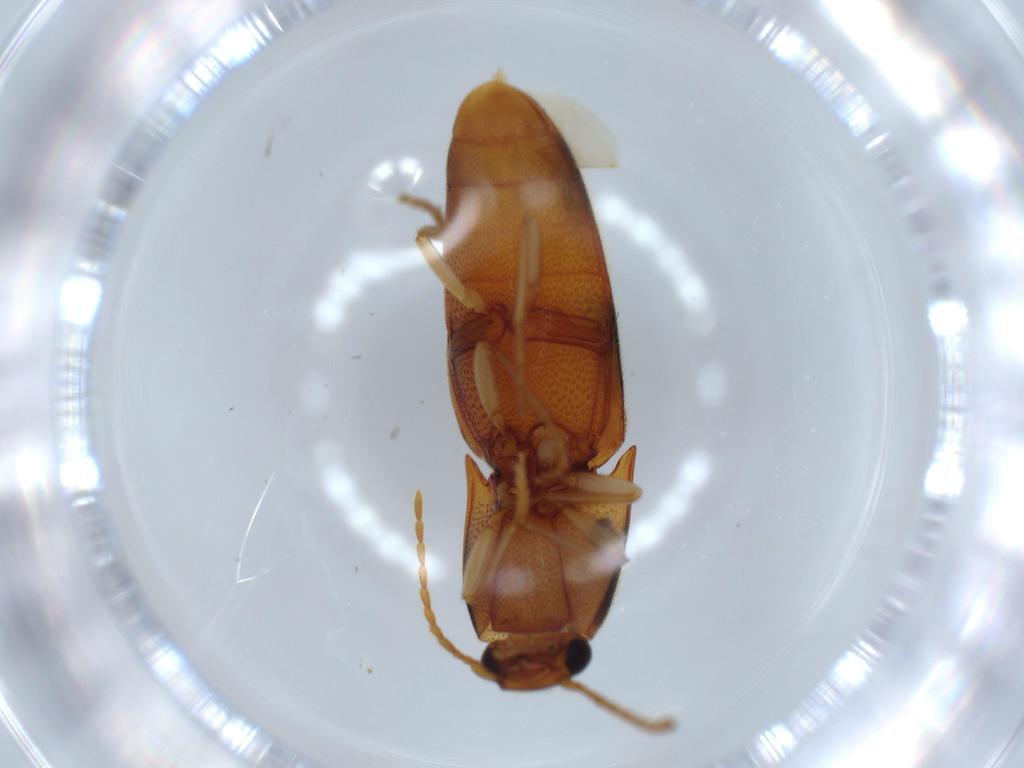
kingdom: Animalia
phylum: Arthropoda
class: Insecta
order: Coleoptera
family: Elateridae
